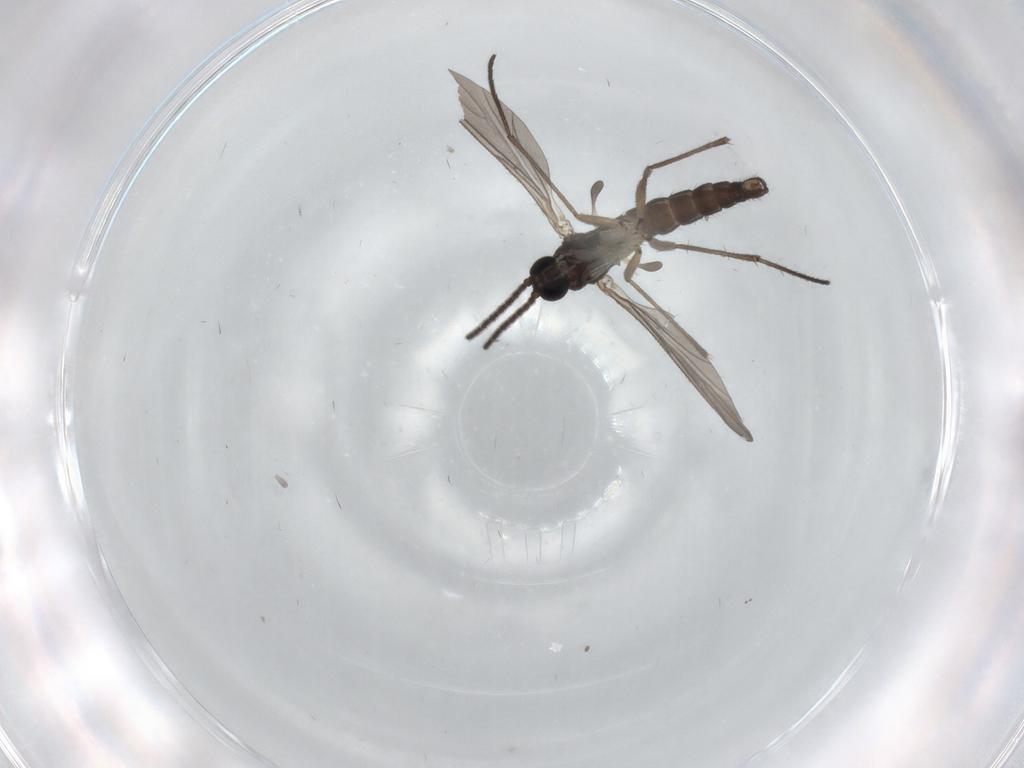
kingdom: Animalia
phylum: Arthropoda
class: Insecta
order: Diptera
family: Sciaridae
